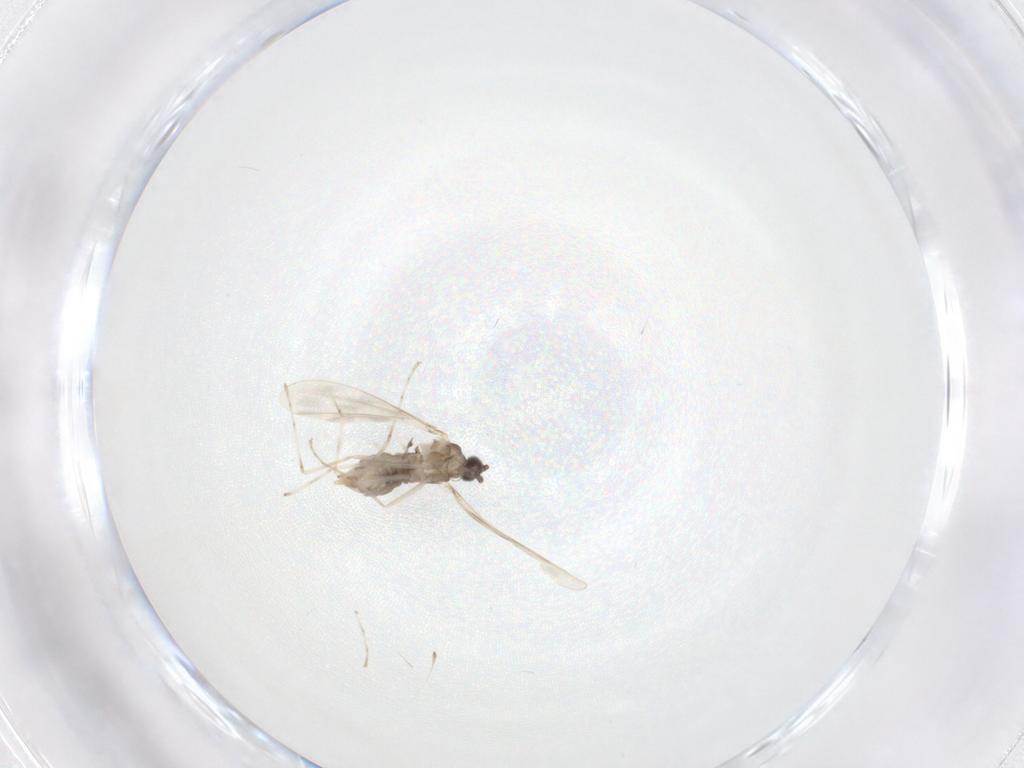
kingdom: Animalia
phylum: Arthropoda
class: Insecta
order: Diptera
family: Cecidomyiidae
